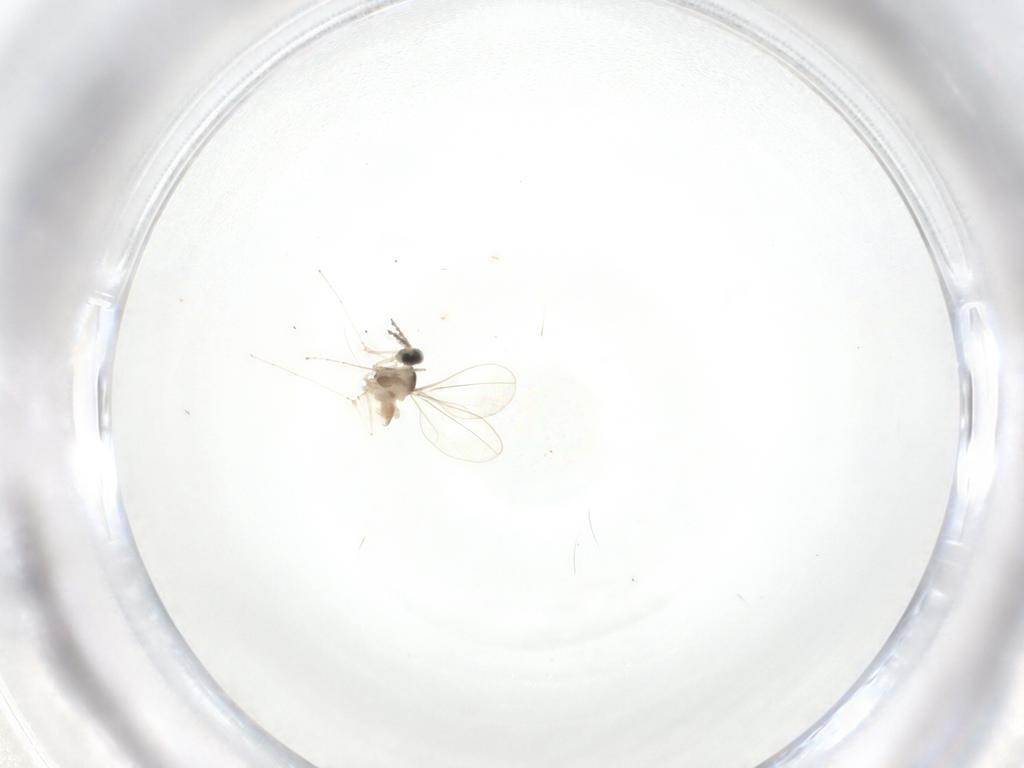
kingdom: Animalia
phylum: Arthropoda
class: Insecta
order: Diptera
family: Cecidomyiidae
